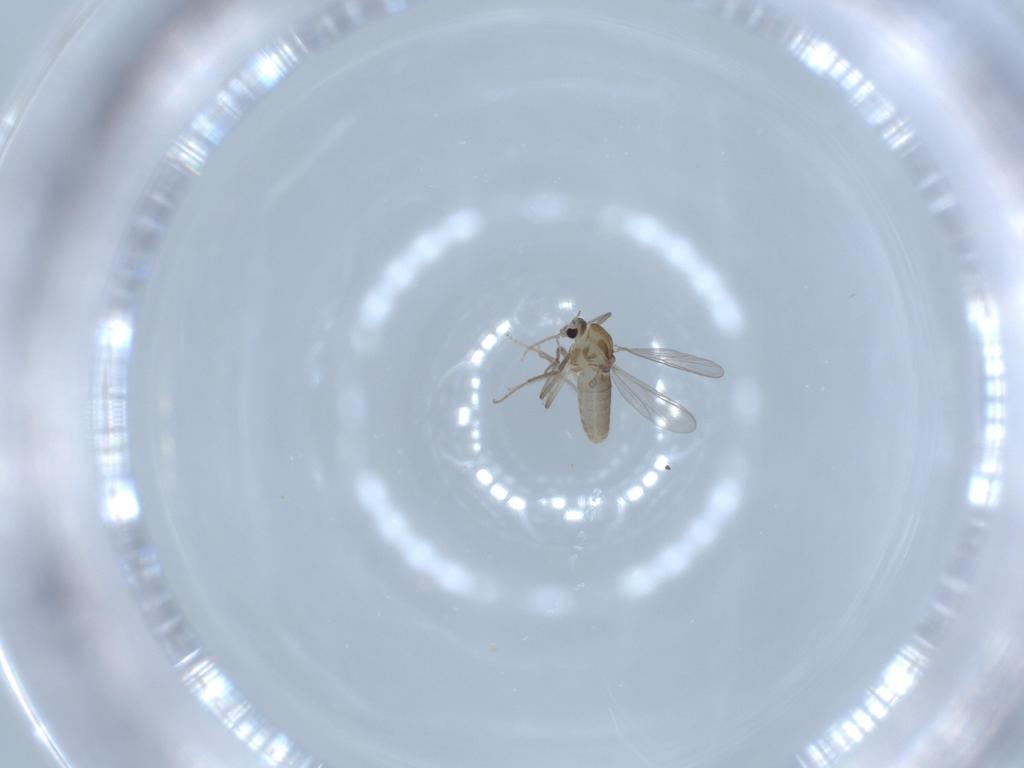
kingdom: Animalia
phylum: Arthropoda
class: Insecta
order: Diptera
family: Chironomidae
